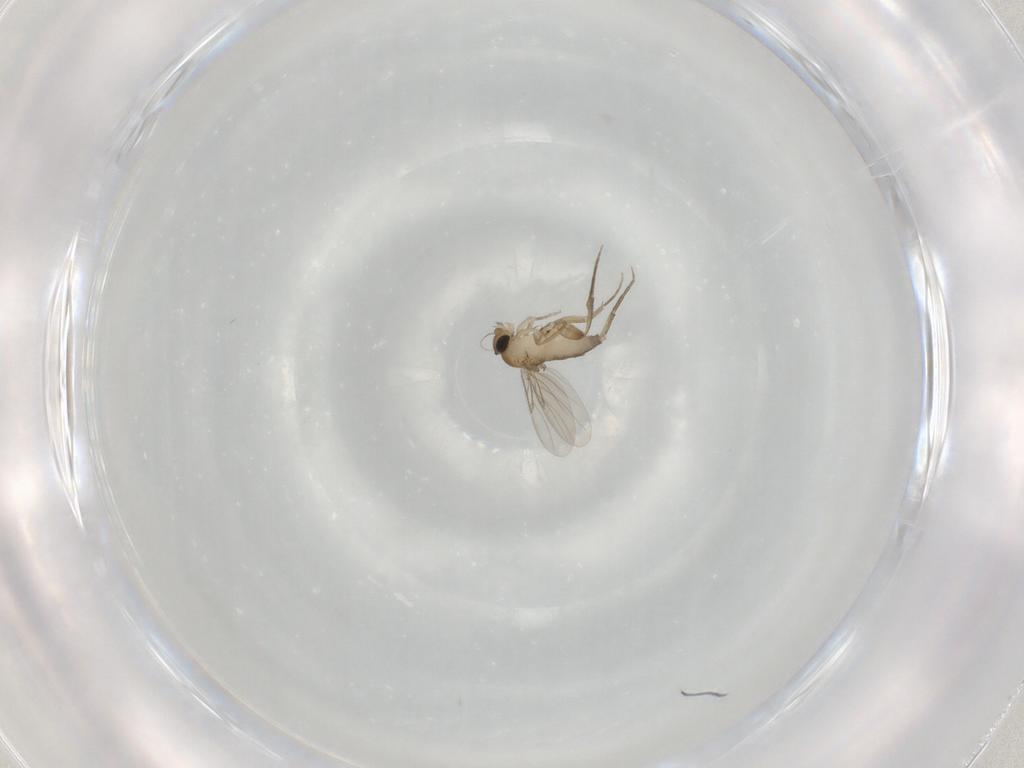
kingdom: Animalia
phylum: Arthropoda
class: Insecta
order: Diptera
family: Phoridae
